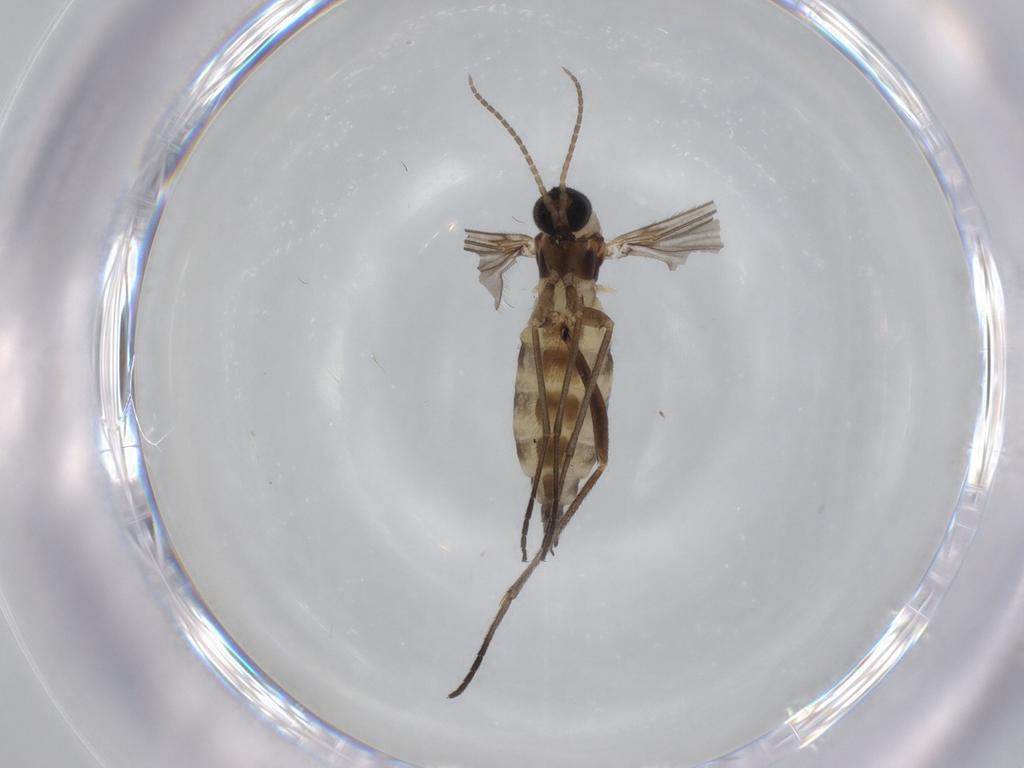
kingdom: Animalia
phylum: Arthropoda
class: Insecta
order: Diptera
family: Sciaridae
